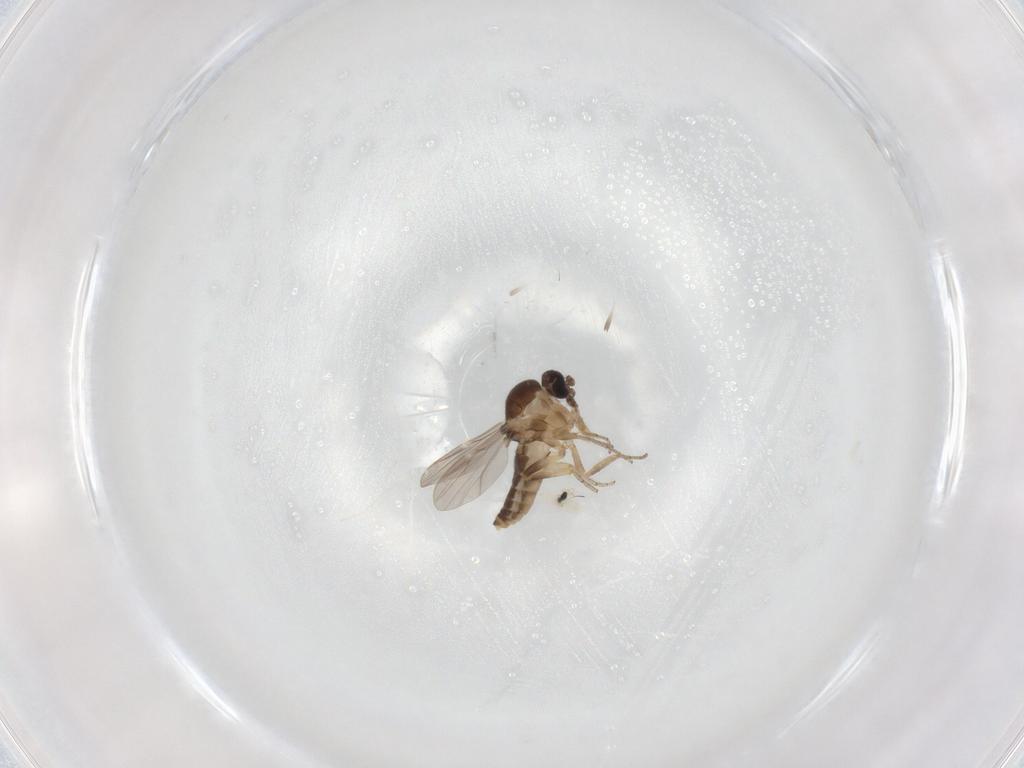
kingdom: Animalia
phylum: Arthropoda
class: Insecta
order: Diptera
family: Ceratopogonidae
